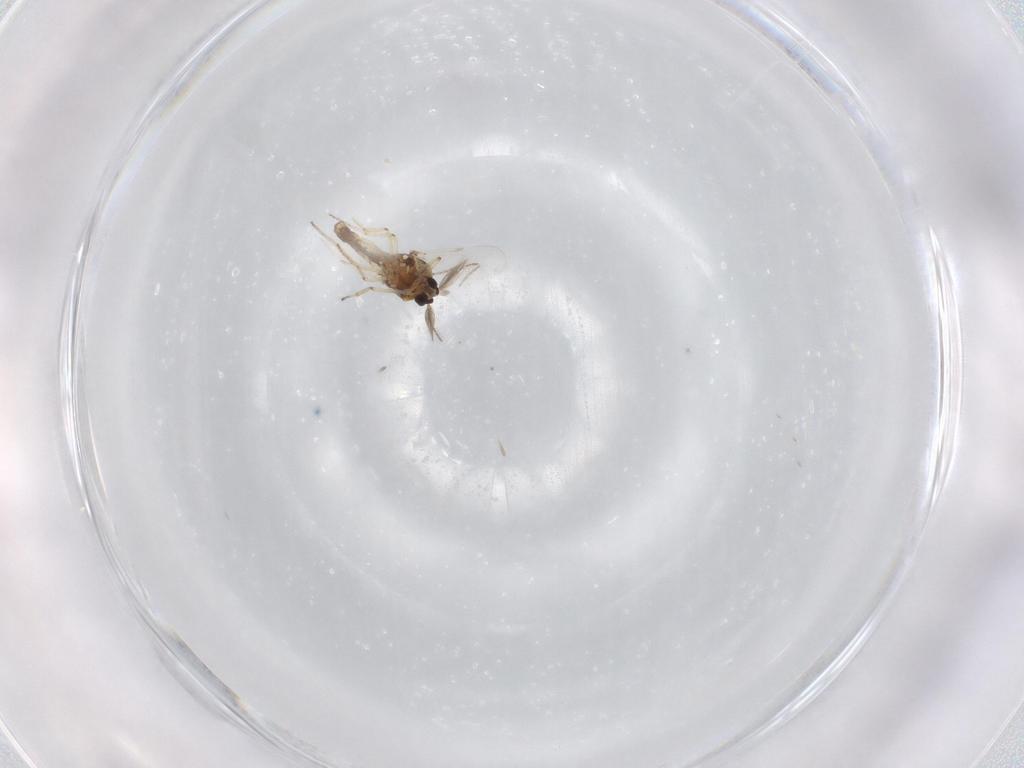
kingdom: Animalia
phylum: Arthropoda
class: Insecta
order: Diptera
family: Ceratopogonidae
